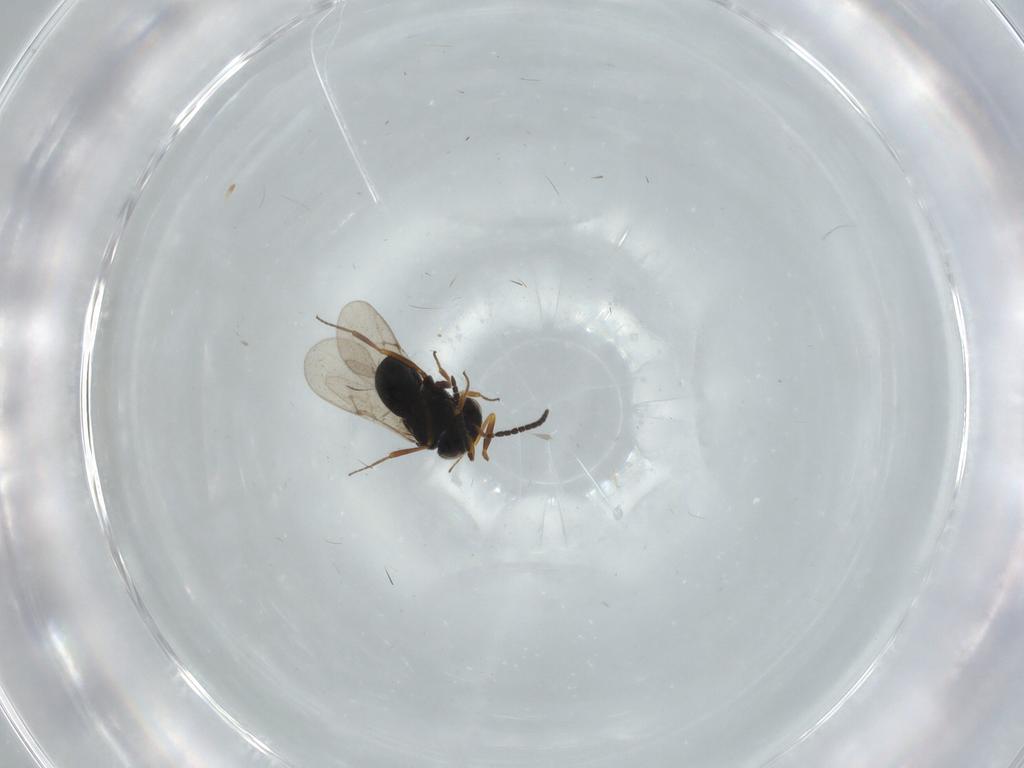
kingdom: Animalia
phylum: Arthropoda
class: Insecta
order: Hymenoptera
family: Scelionidae
